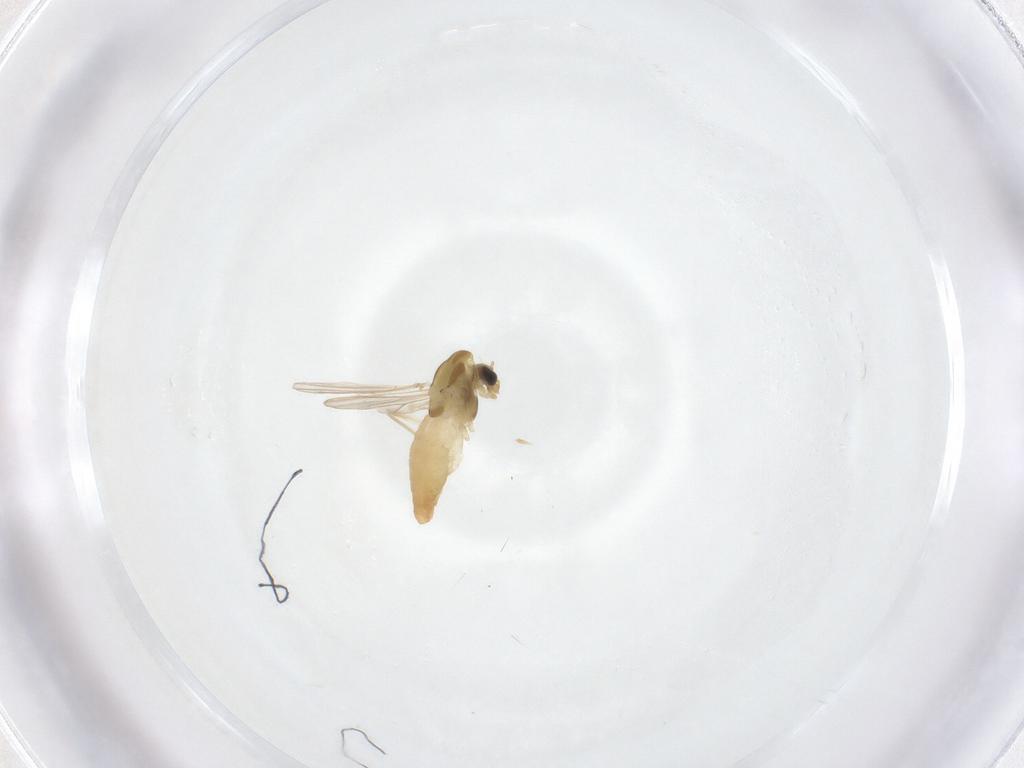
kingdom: Animalia
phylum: Arthropoda
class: Insecta
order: Diptera
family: Chironomidae
